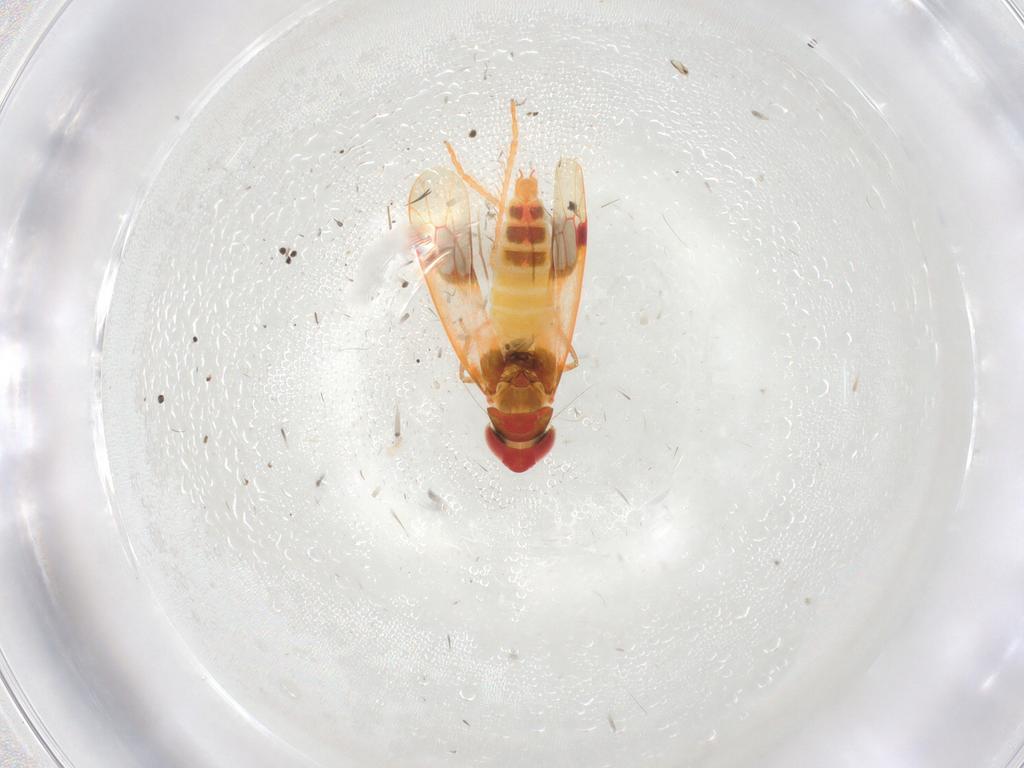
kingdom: Animalia
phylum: Arthropoda
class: Insecta
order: Hemiptera
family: Cicadellidae
